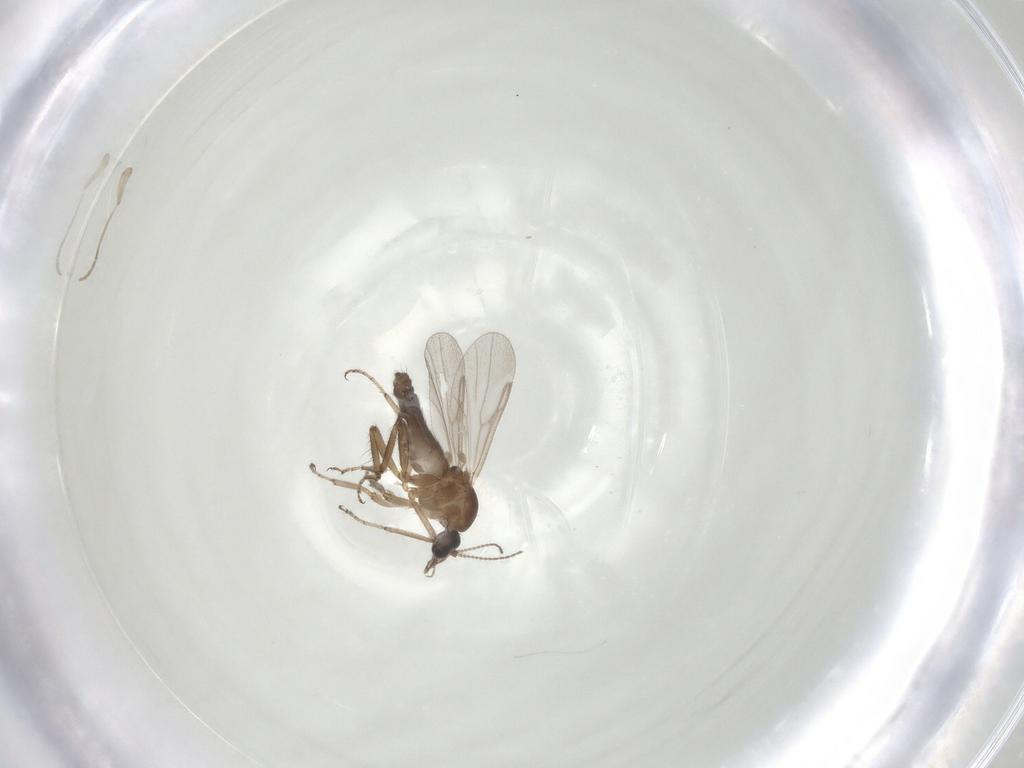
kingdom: Animalia
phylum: Arthropoda
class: Insecta
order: Diptera
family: Ceratopogonidae
